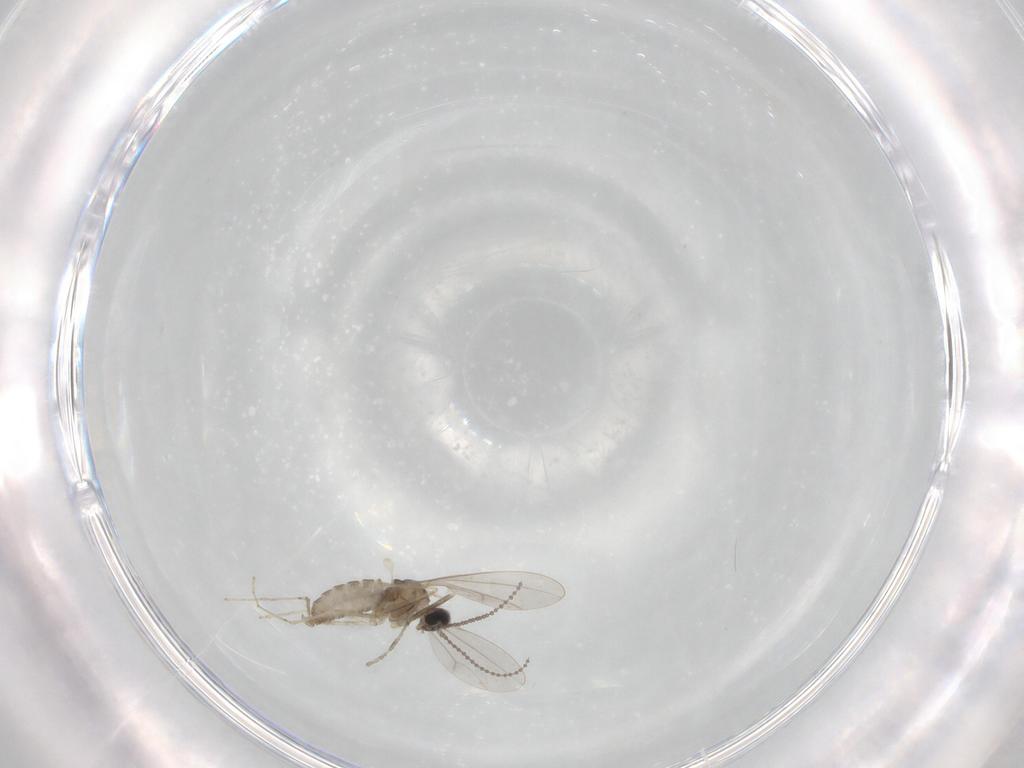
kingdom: Animalia
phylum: Arthropoda
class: Insecta
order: Diptera
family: Cecidomyiidae
